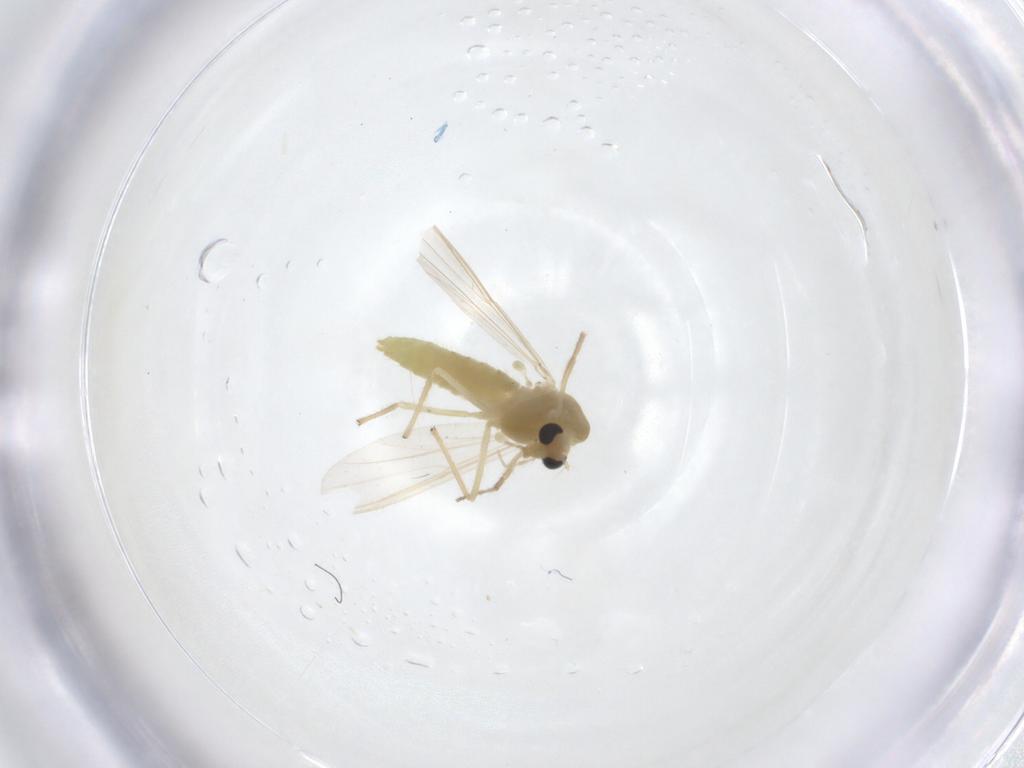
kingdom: Animalia
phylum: Arthropoda
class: Insecta
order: Diptera
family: Chironomidae
